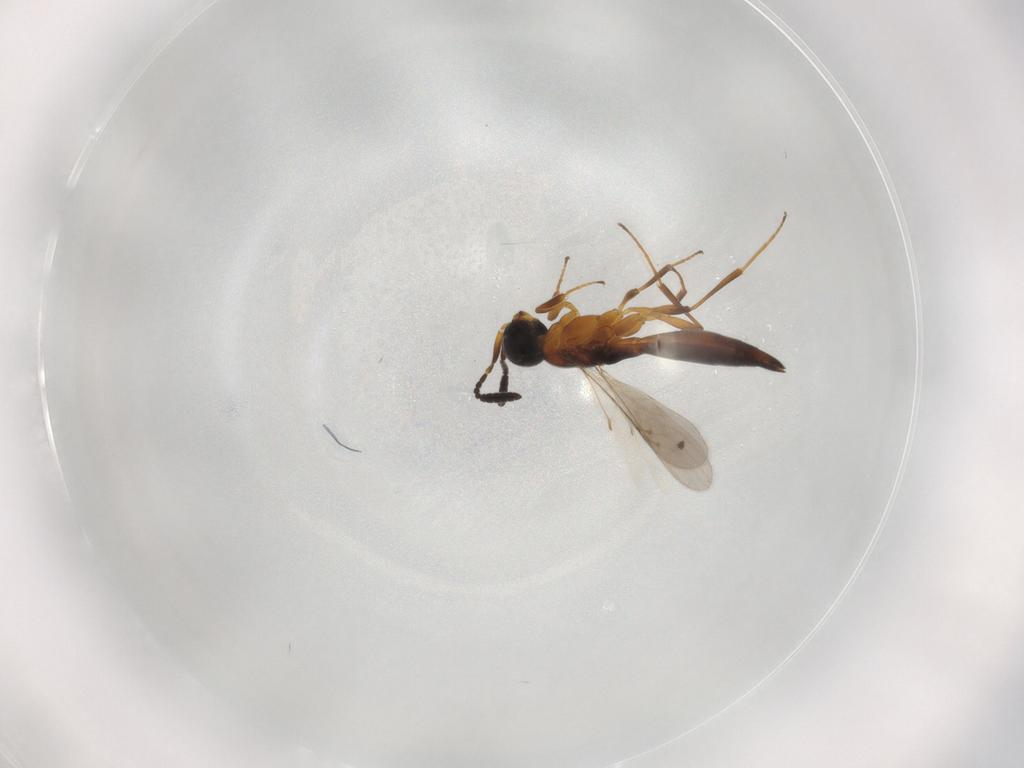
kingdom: Animalia
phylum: Arthropoda
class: Insecta
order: Hymenoptera
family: Scelionidae
